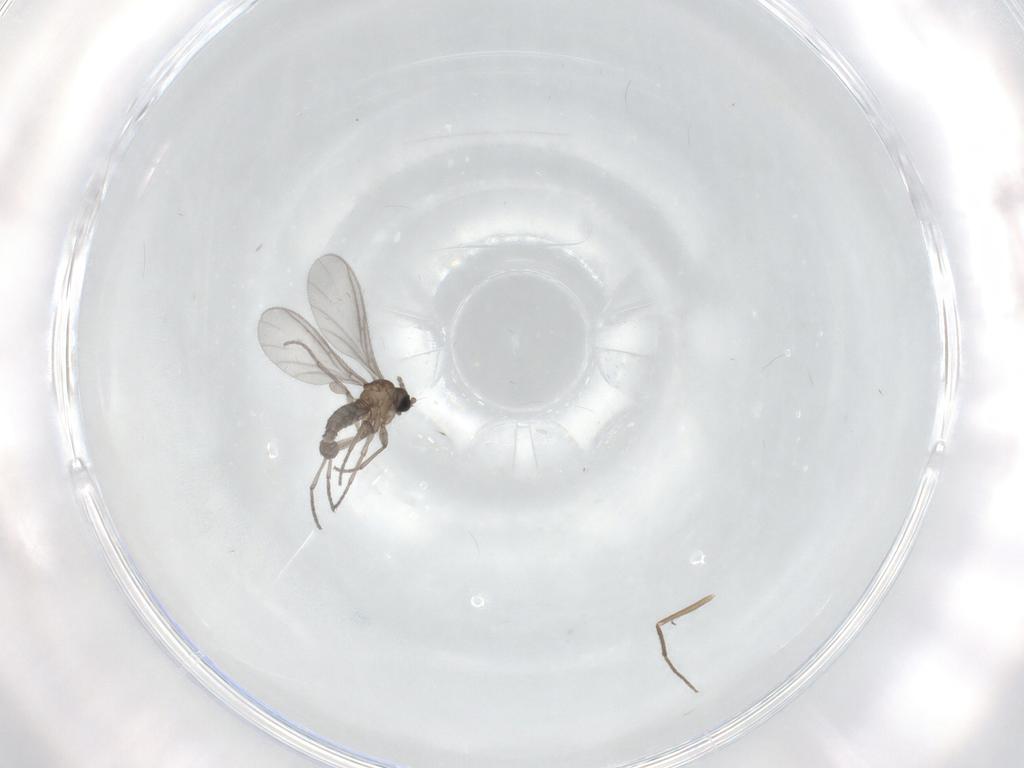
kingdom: Animalia
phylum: Arthropoda
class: Insecta
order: Diptera
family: Sciaridae
